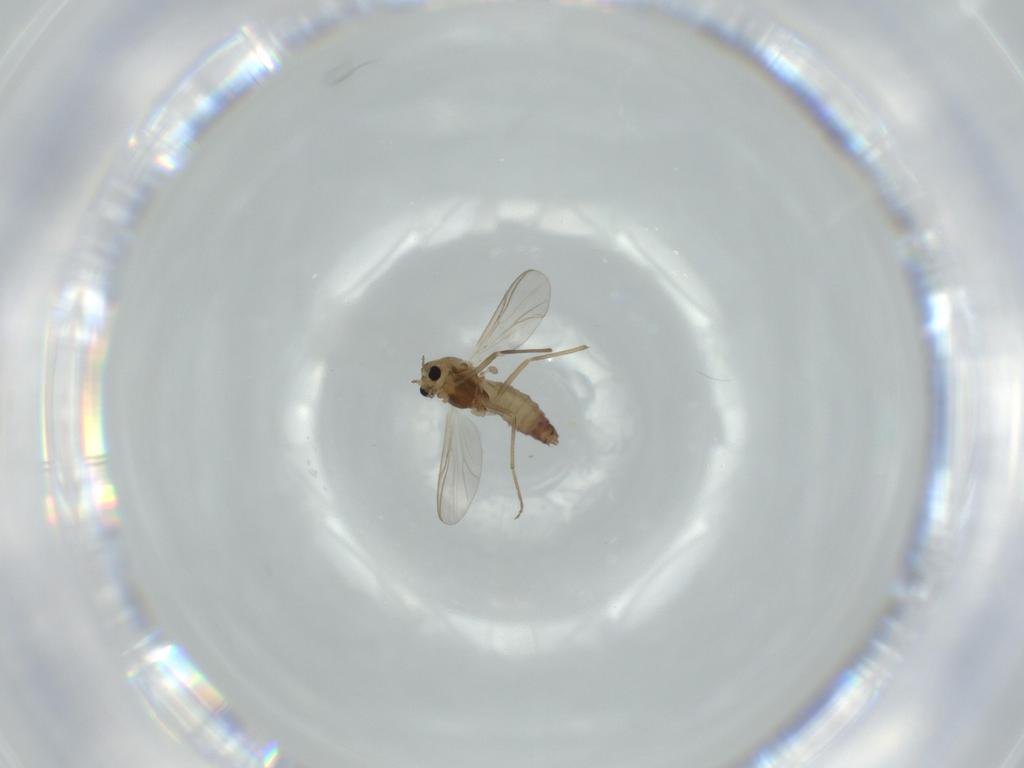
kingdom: Animalia
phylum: Arthropoda
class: Insecta
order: Diptera
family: Chironomidae
